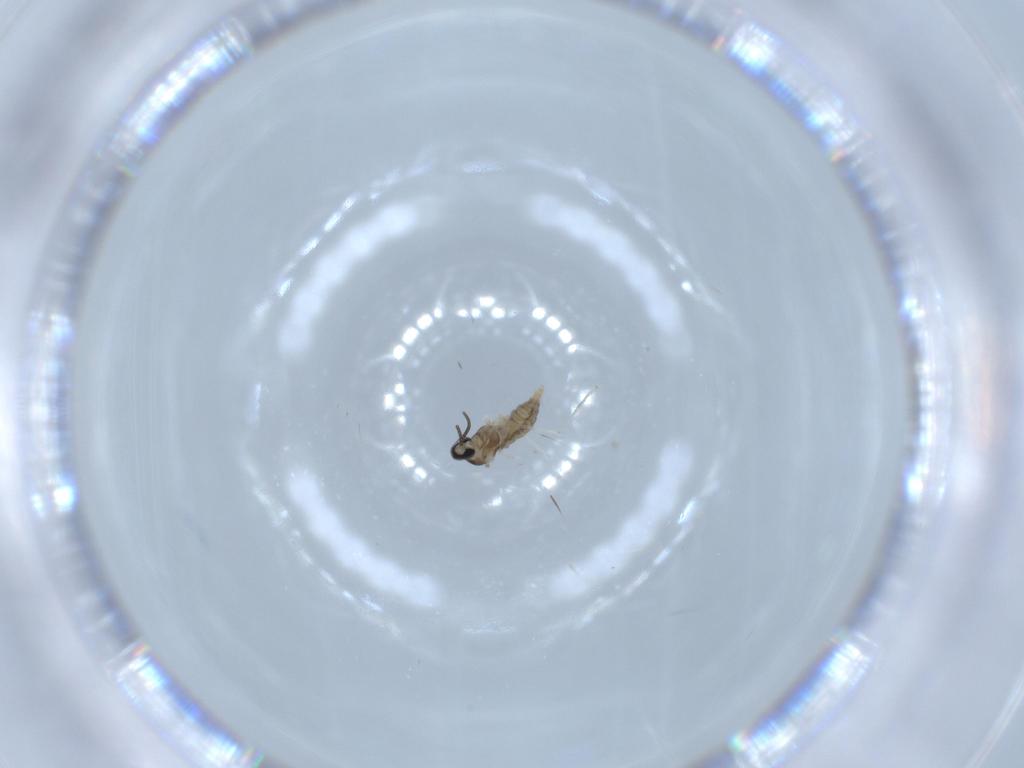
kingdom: Animalia
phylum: Arthropoda
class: Insecta
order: Diptera
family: Cecidomyiidae
